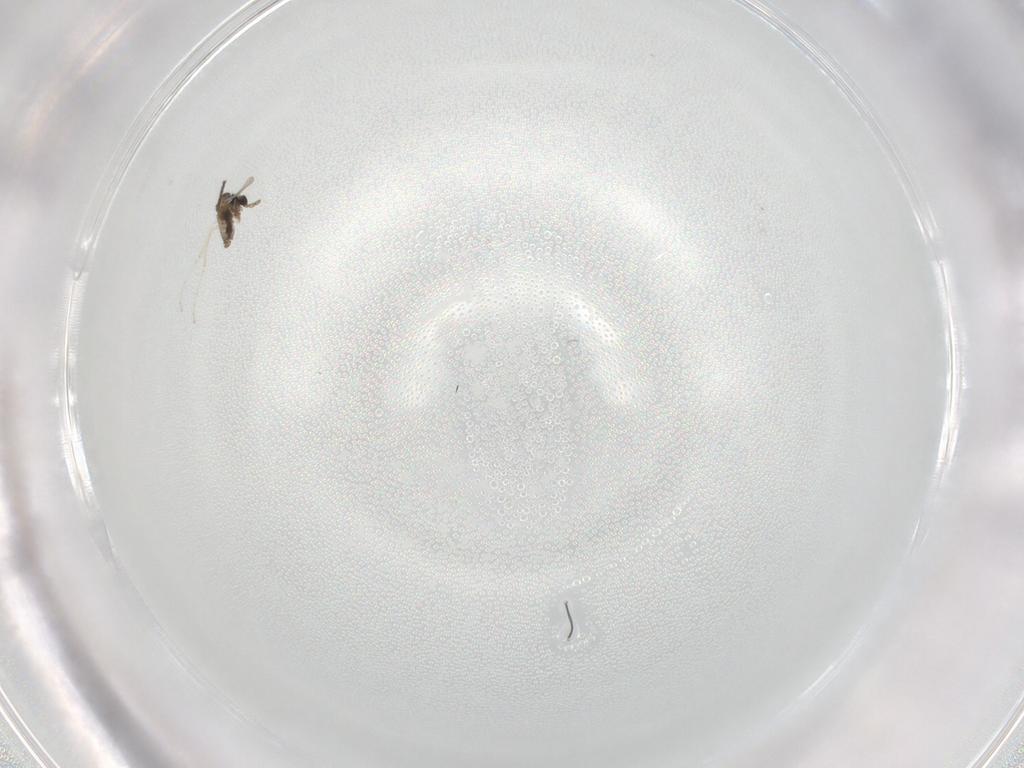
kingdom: Animalia
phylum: Arthropoda
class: Insecta
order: Diptera
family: Cecidomyiidae
